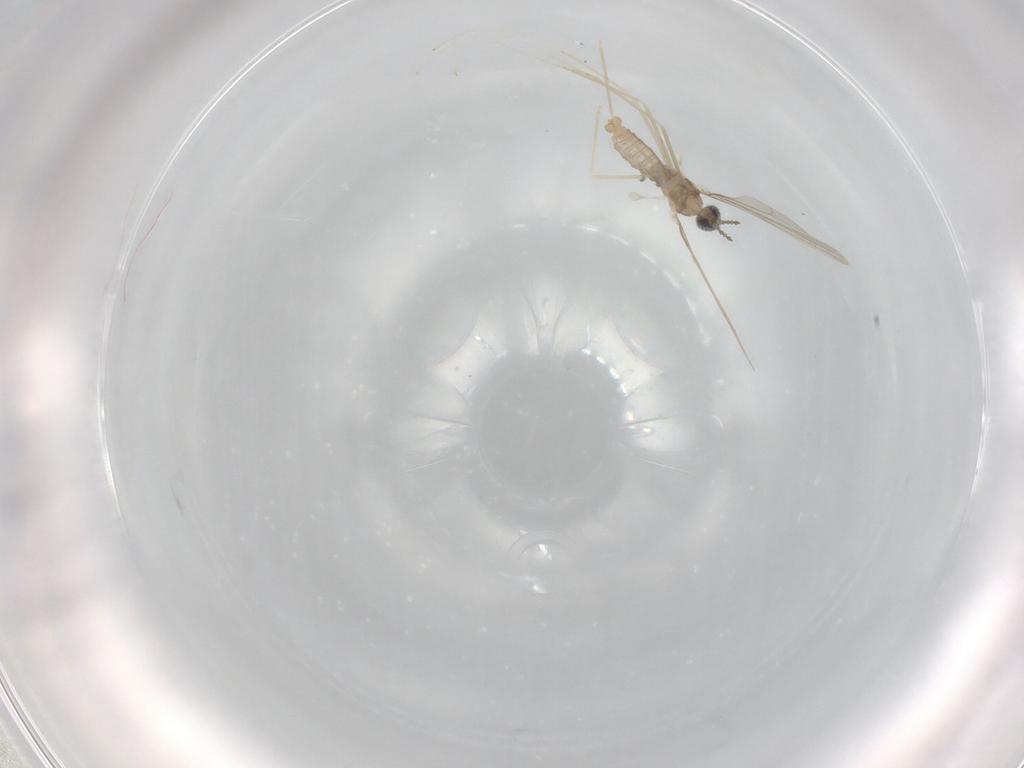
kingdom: Animalia
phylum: Arthropoda
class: Insecta
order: Diptera
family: Cecidomyiidae
